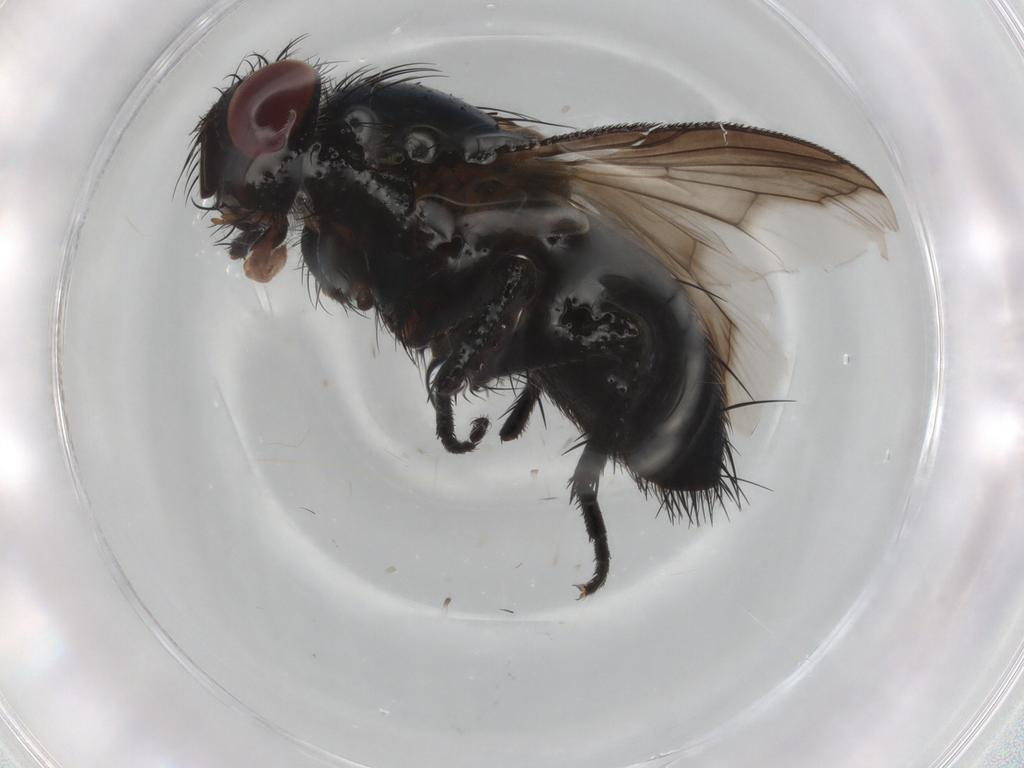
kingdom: Animalia
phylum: Arthropoda
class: Insecta
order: Diptera
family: Tachinidae
